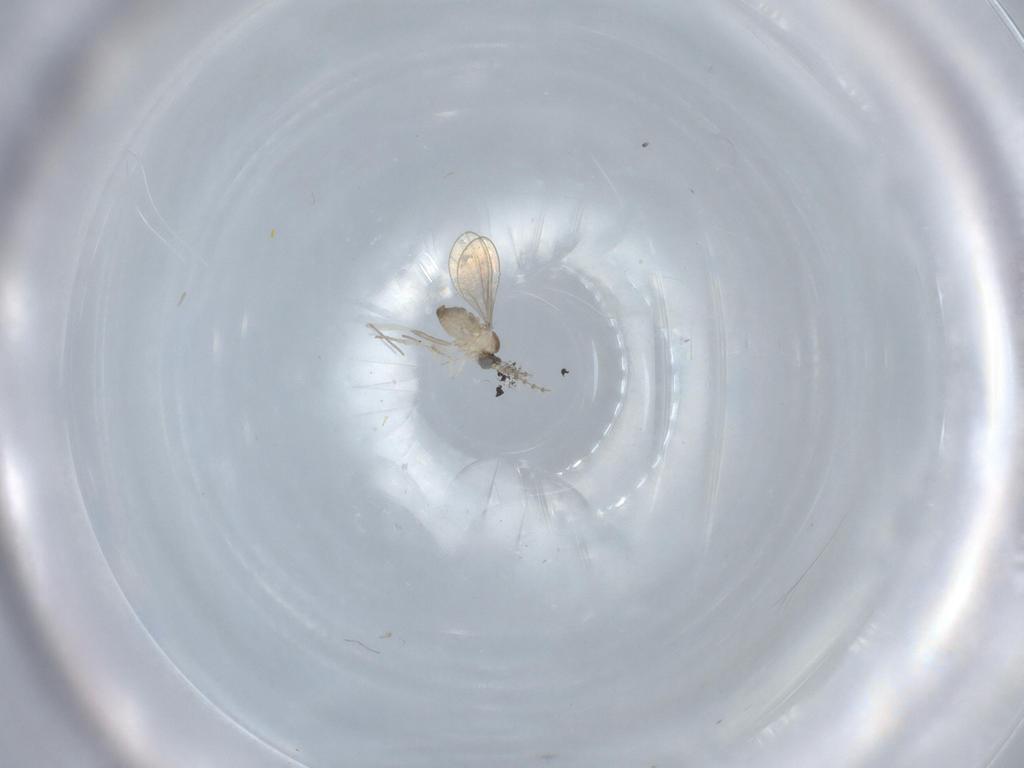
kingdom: Animalia
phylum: Arthropoda
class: Insecta
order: Diptera
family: Cecidomyiidae
